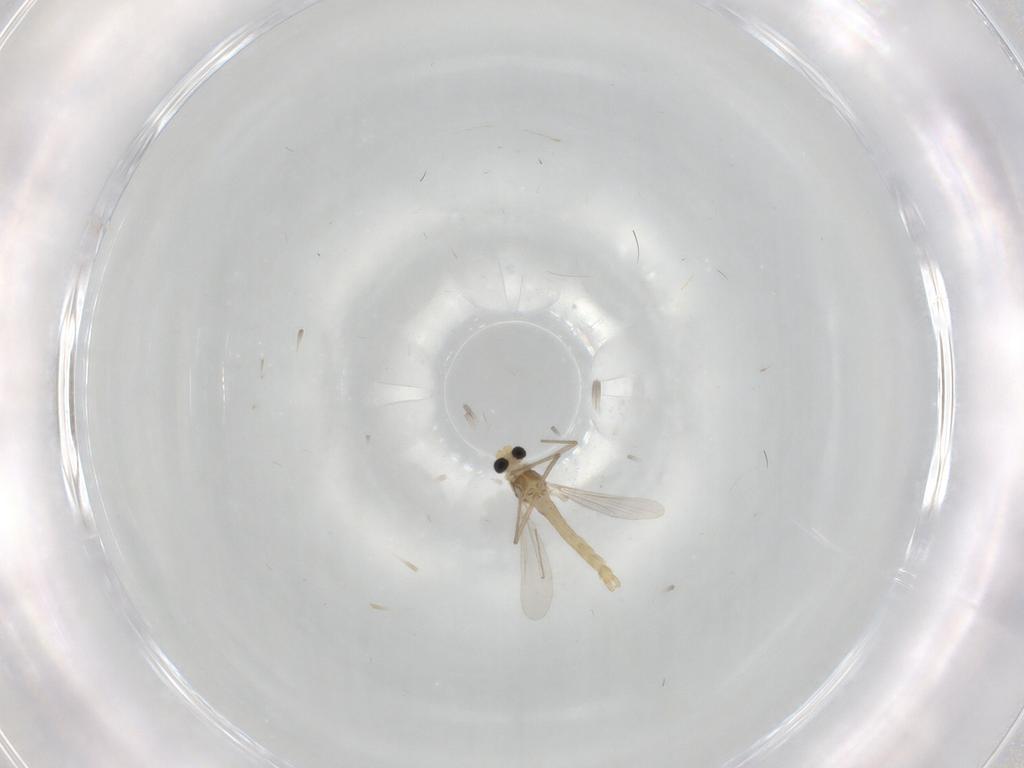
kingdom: Animalia
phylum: Arthropoda
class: Insecta
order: Diptera
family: Cecidomyiidae
